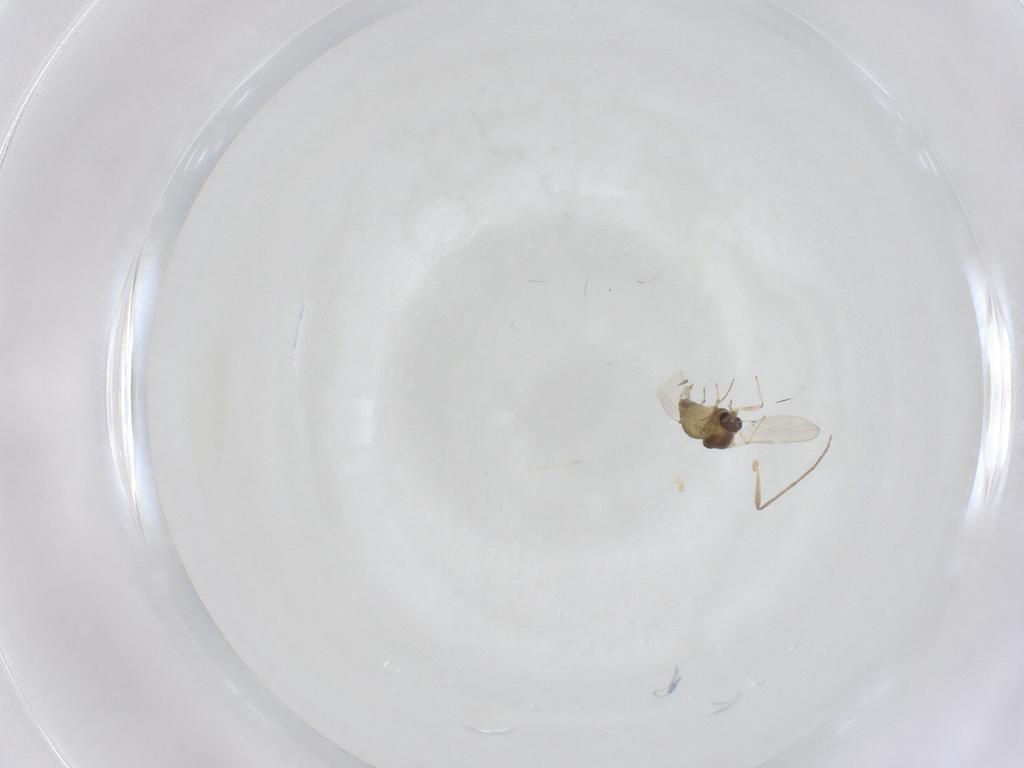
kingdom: Animalia
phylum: Arthropoda
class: Insecta
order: Diptera
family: Chironomidae
